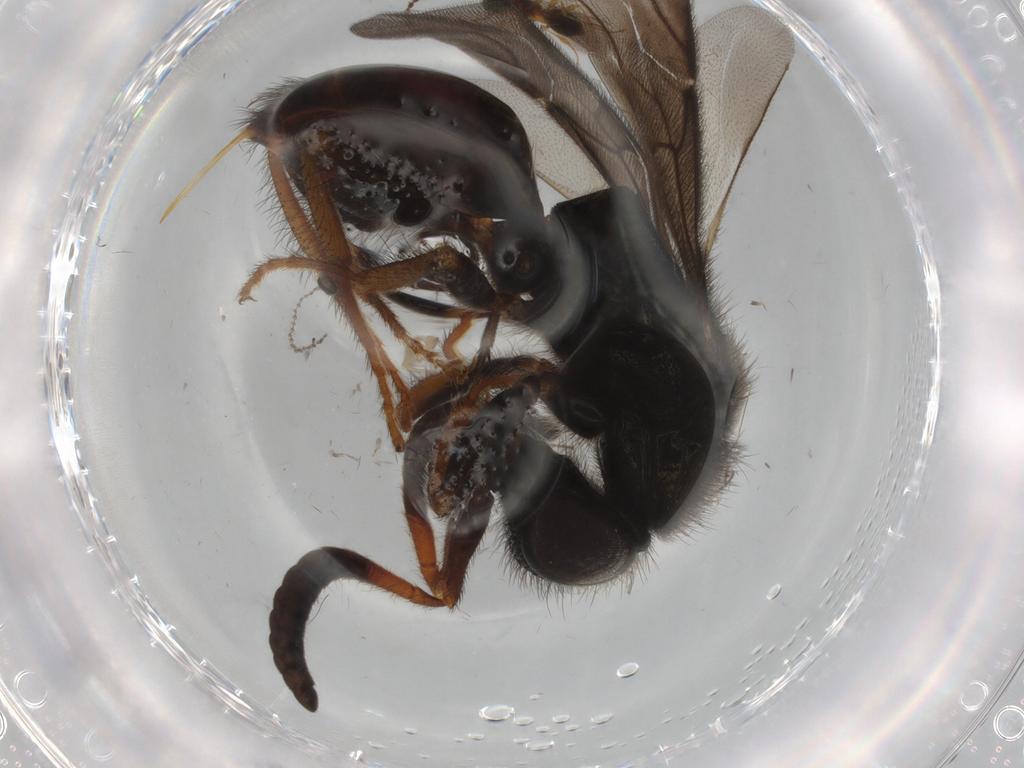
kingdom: Animalia
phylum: Arthropoda
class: Insecta
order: Hymenoptera
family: Chrysididae
